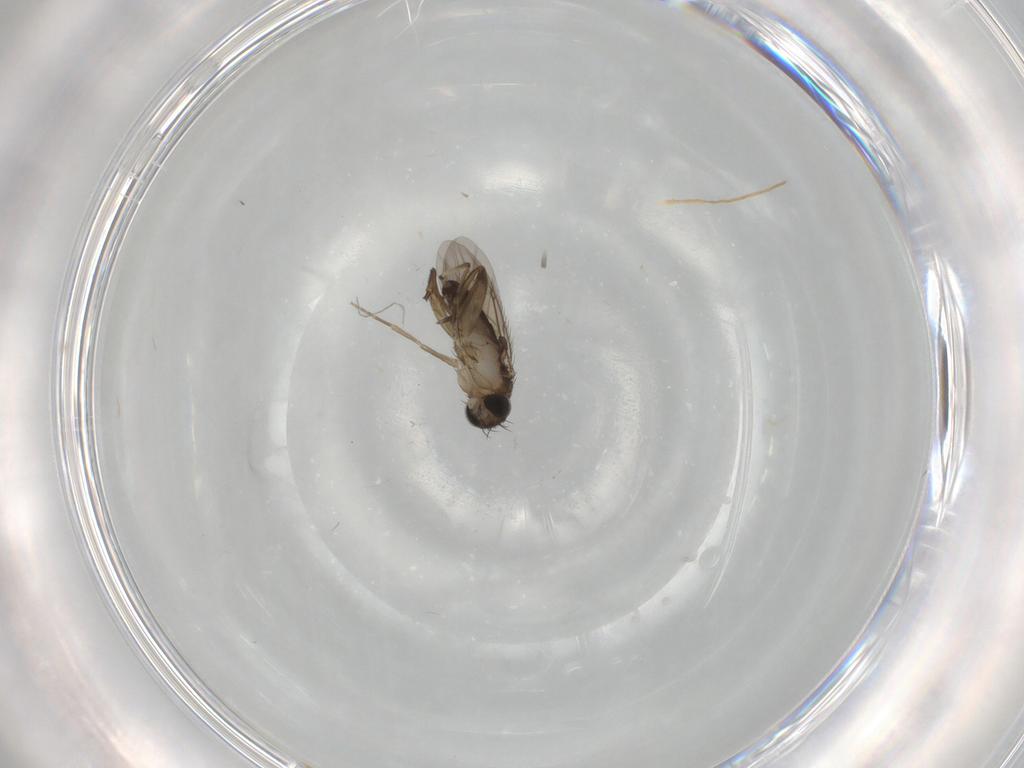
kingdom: Animalia
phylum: Arthropoda
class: Insecta
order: Diptera
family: Phoridae
